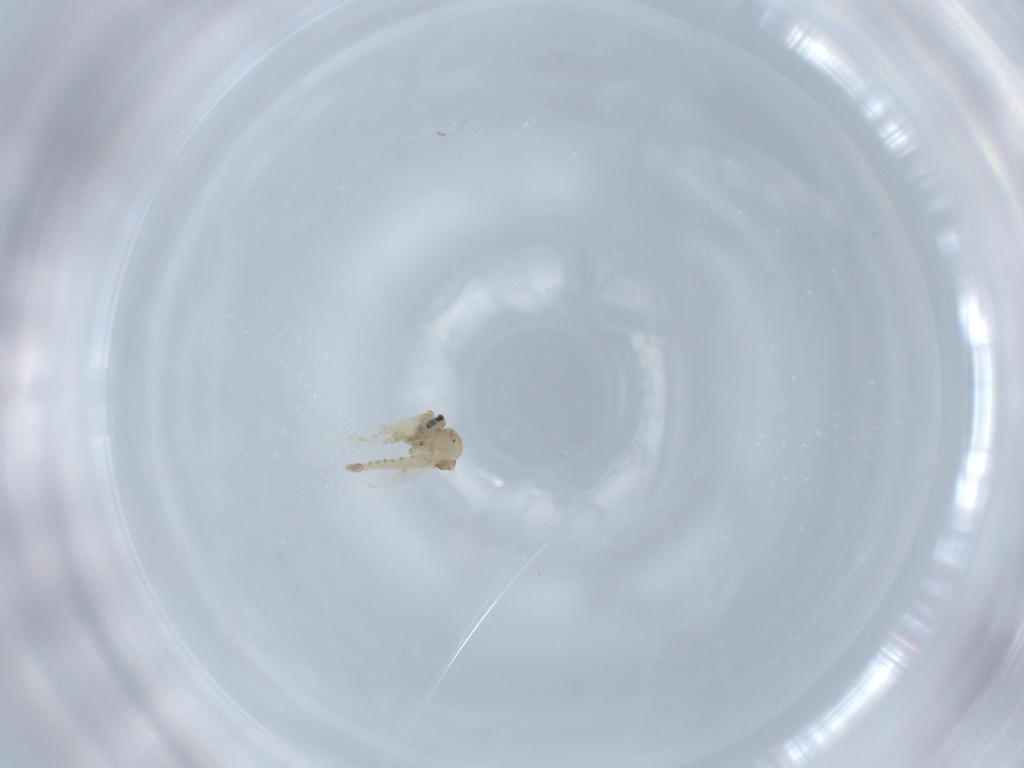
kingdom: Animalia
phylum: Arthropoda
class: Insecta
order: Diptera
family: Ceratopogonidae
